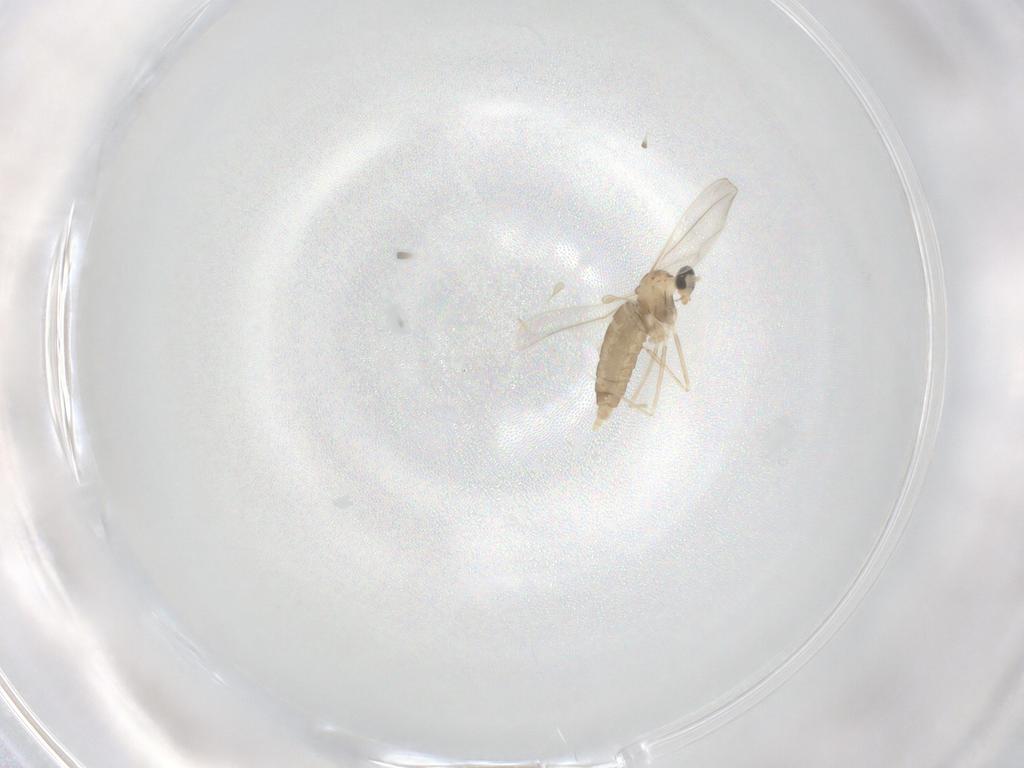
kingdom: Animalia
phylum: Arthropoda
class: Insecta
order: Diptera
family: Cecidomyiidae
